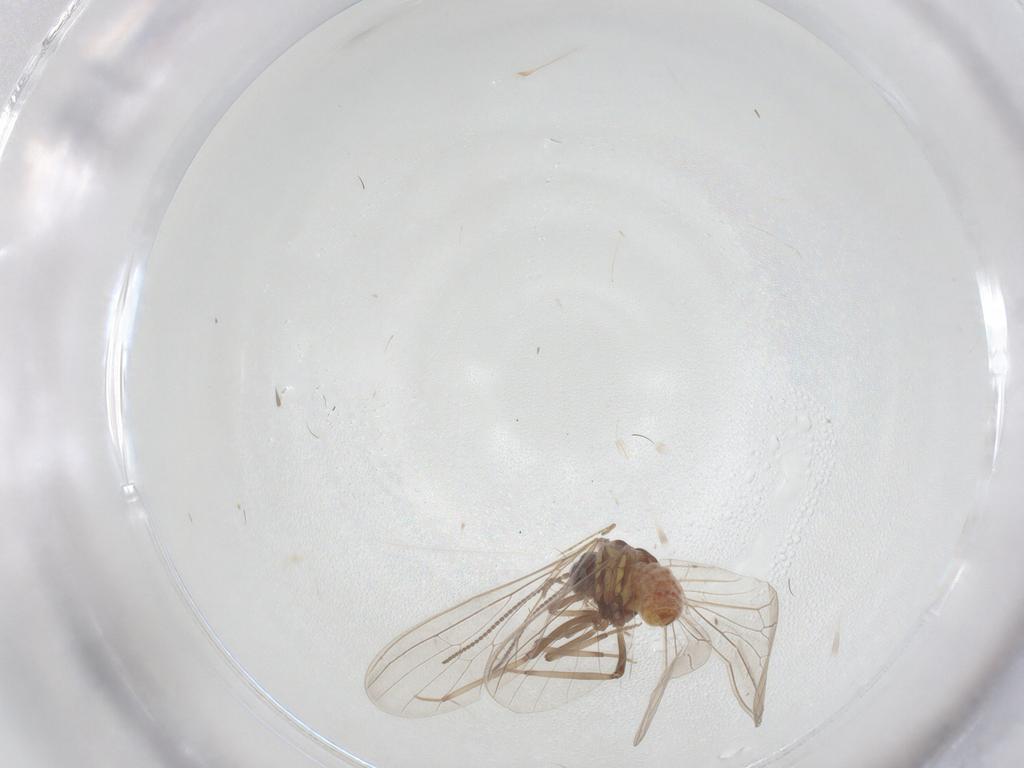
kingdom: Animalia
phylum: Arthropoda
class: Insecta
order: Neuroptera
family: Coniopterygidae
